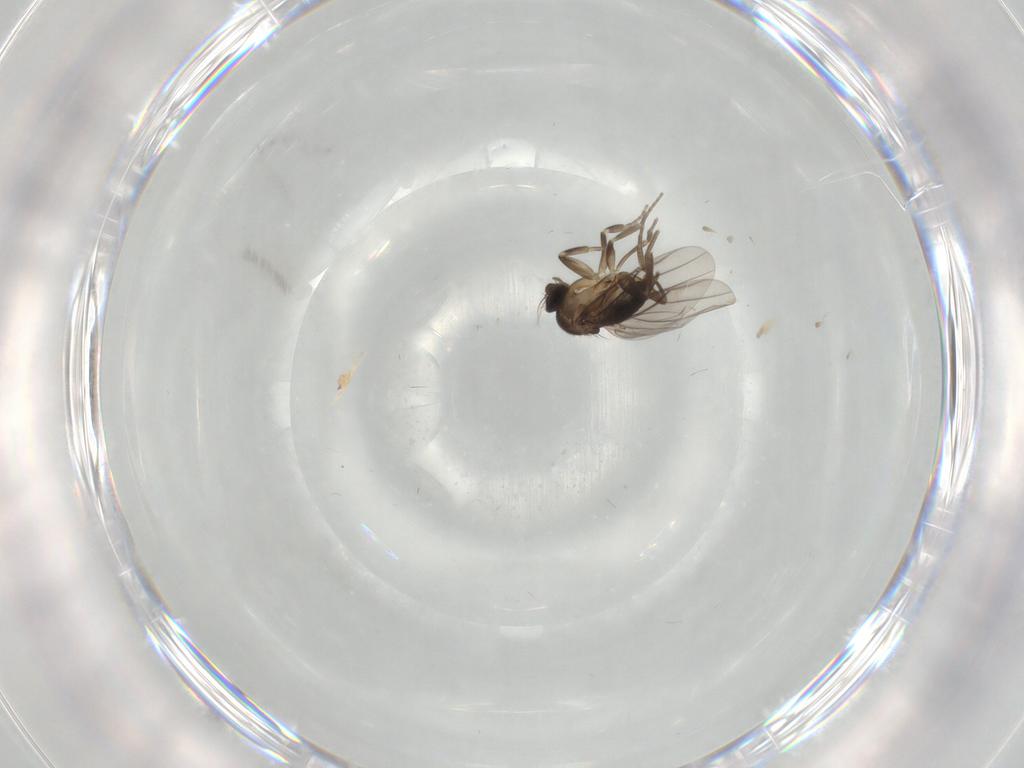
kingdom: Animalia
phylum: Arthropoda
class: Insecta
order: Diptera
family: Phoridae
